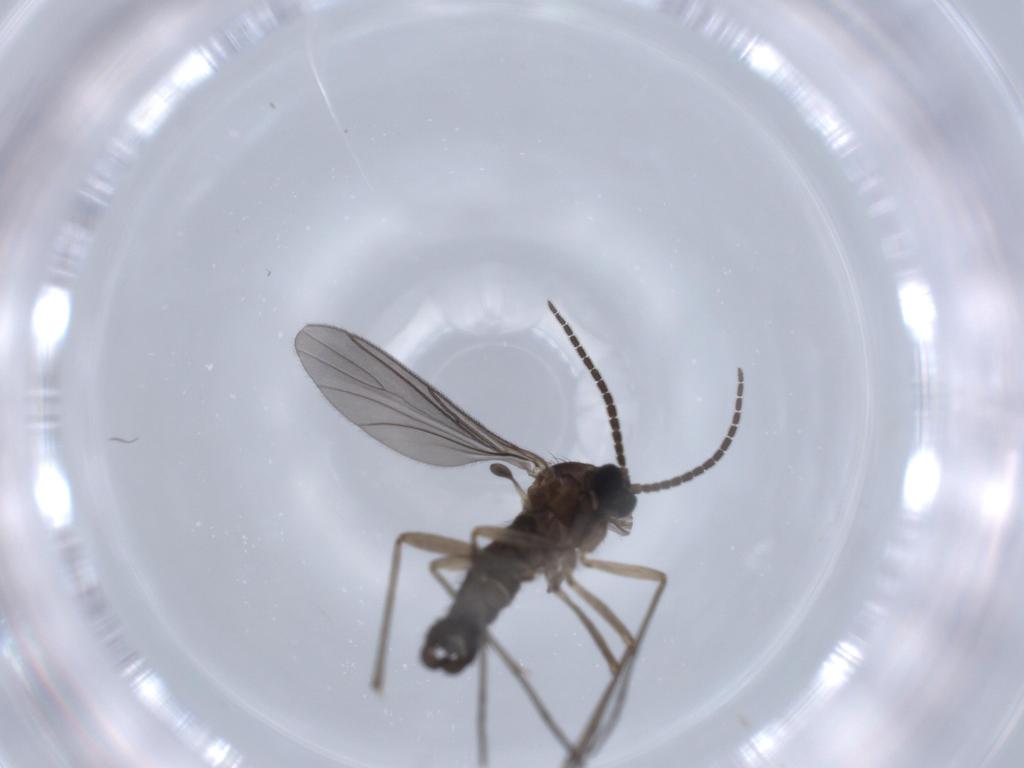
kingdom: Animalia
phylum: Arthropoda
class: Insecta
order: Diptera
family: Sciaridae
